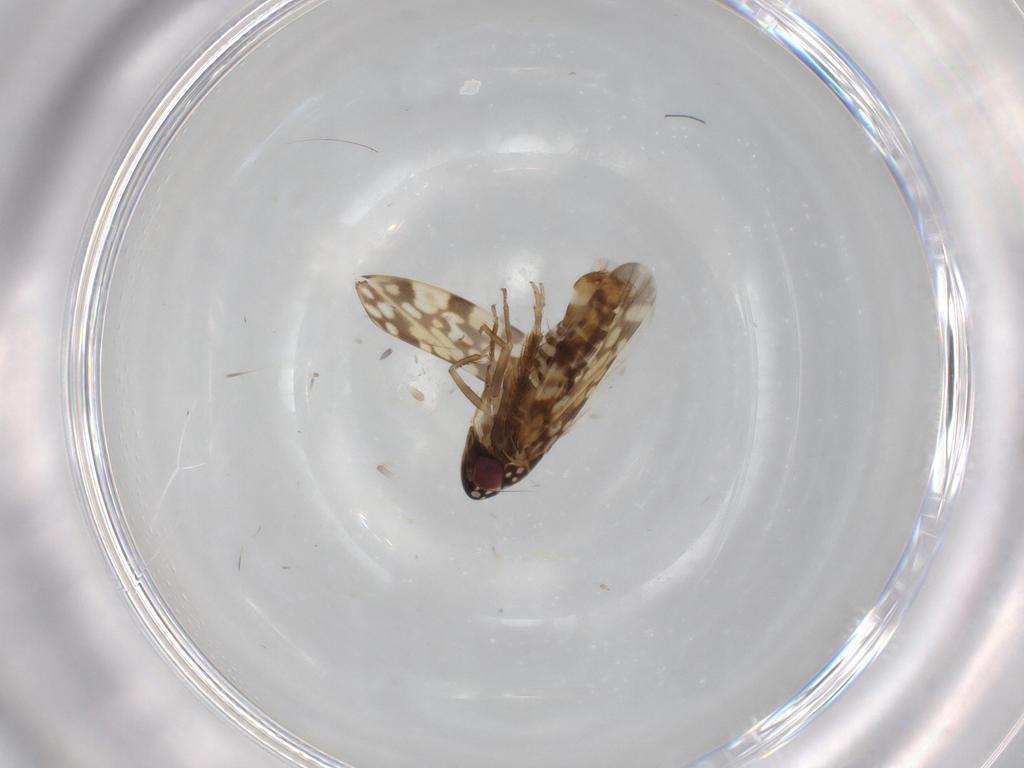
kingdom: Animalia
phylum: Arthropoda
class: Insecta
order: Hemiptera
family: Cicadellidae
